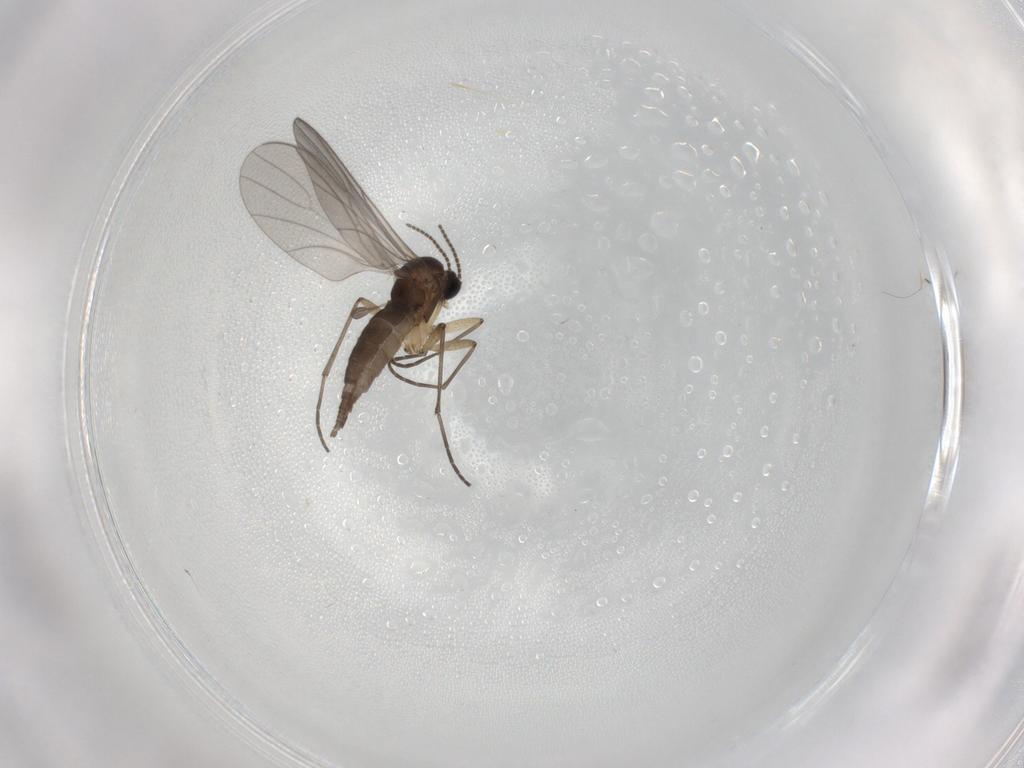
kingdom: Animalia
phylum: Arthropoda
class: Insecta
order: Diptera
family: Sciaridae
